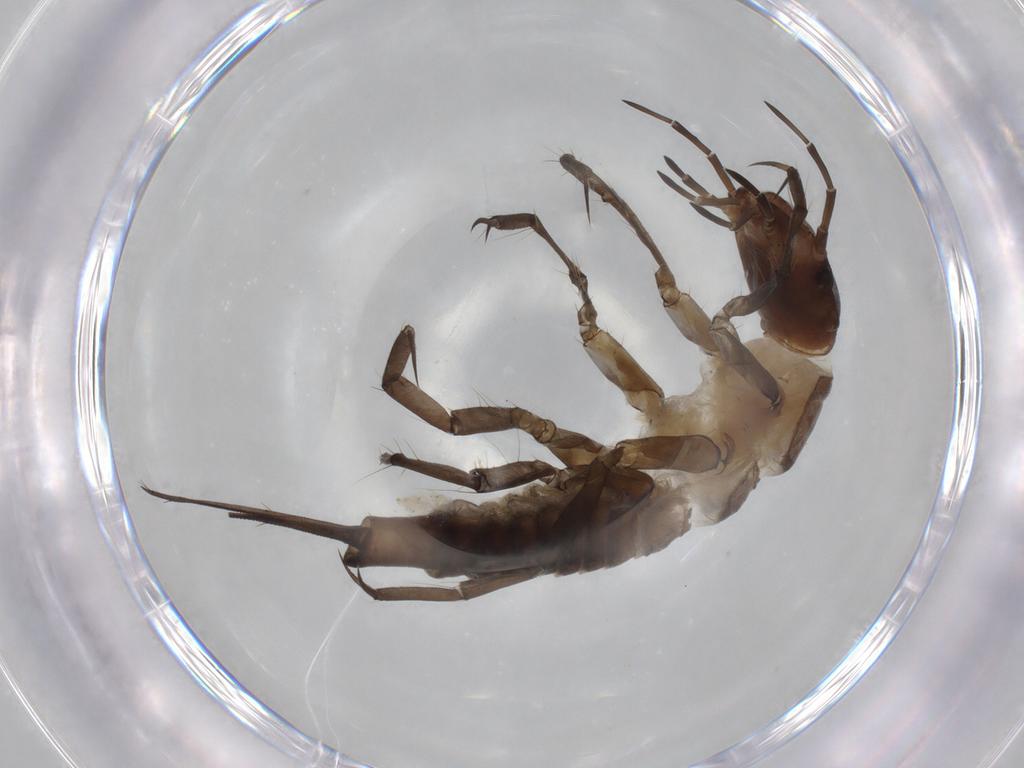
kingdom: Animalia
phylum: Arthropoda
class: Insecta
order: Coleoptera
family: Dytiscidae
